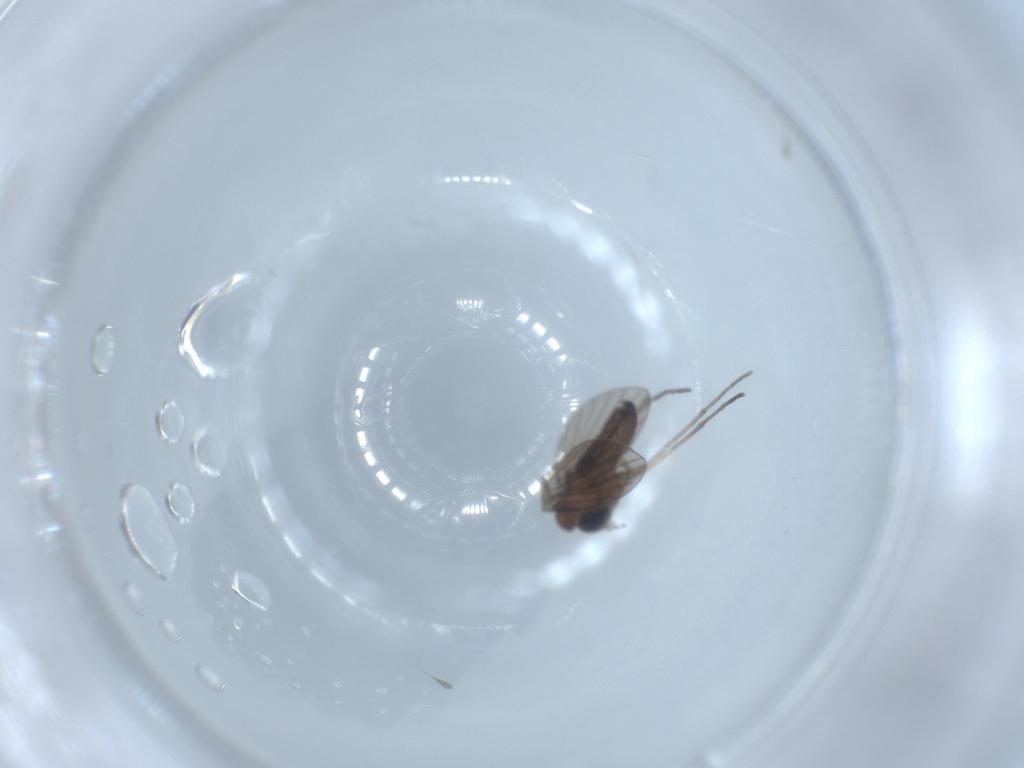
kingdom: Animalia
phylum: Arthropoda
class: Insecta
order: Diptera
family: Psychodidae
